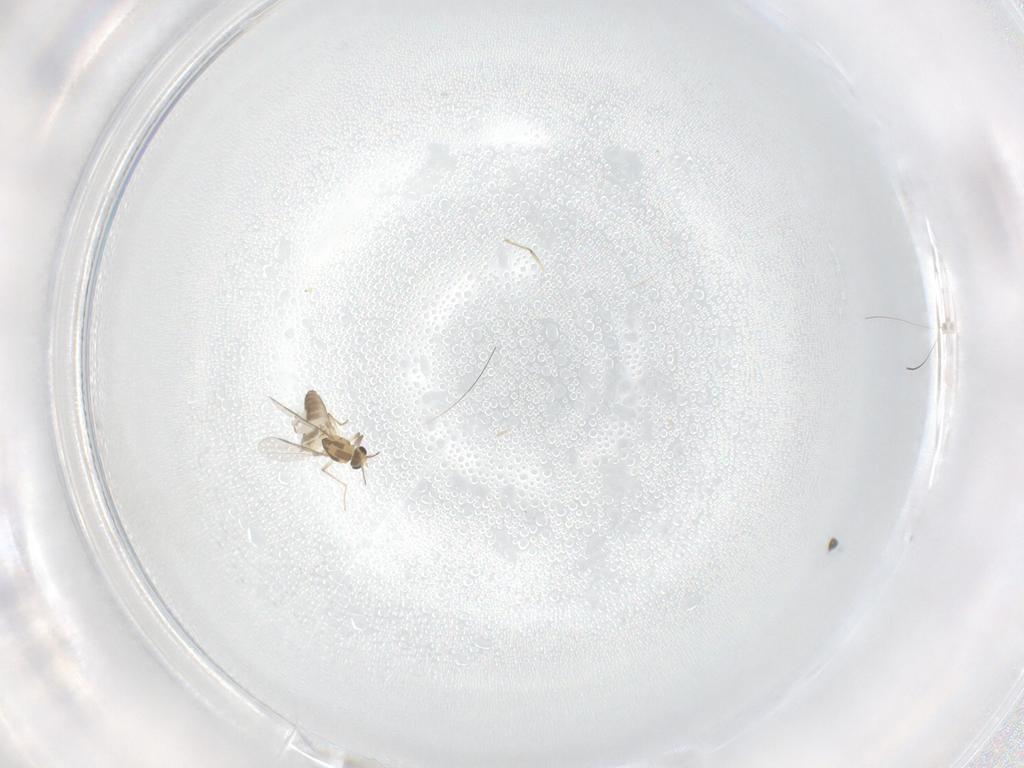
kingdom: Animalia
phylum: Arthropoda
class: Insecta
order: Diptera
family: Chironomidae
